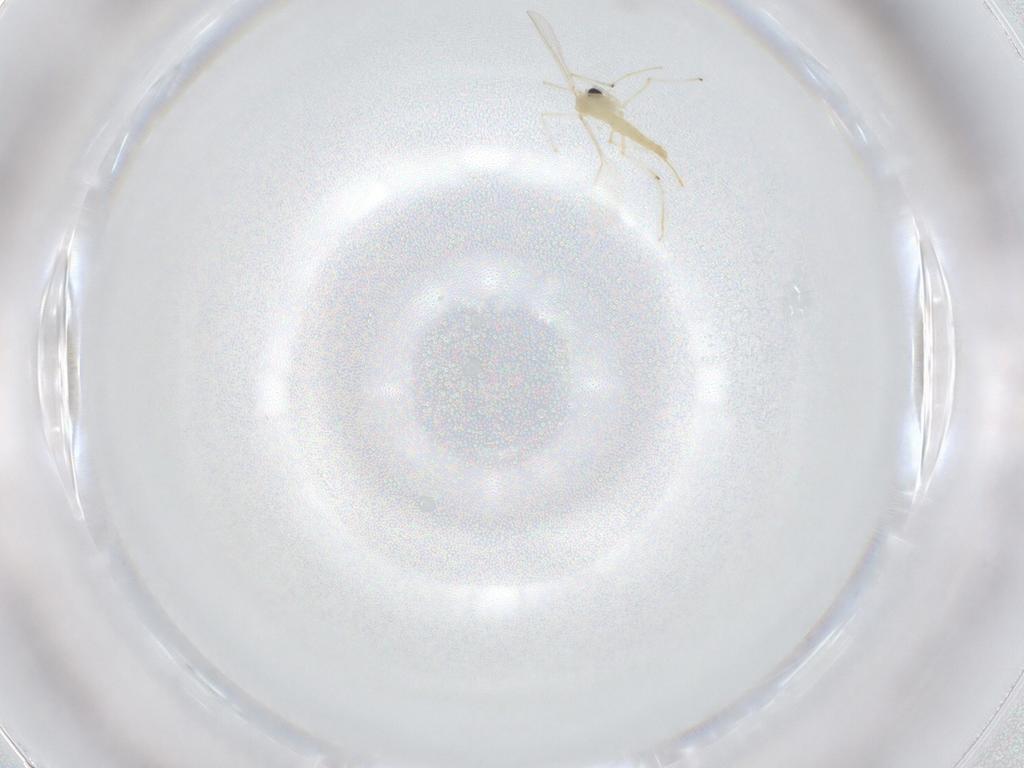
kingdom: Animalia
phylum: Arthropoda
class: Insecta
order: Diptera
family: Chironomidae
